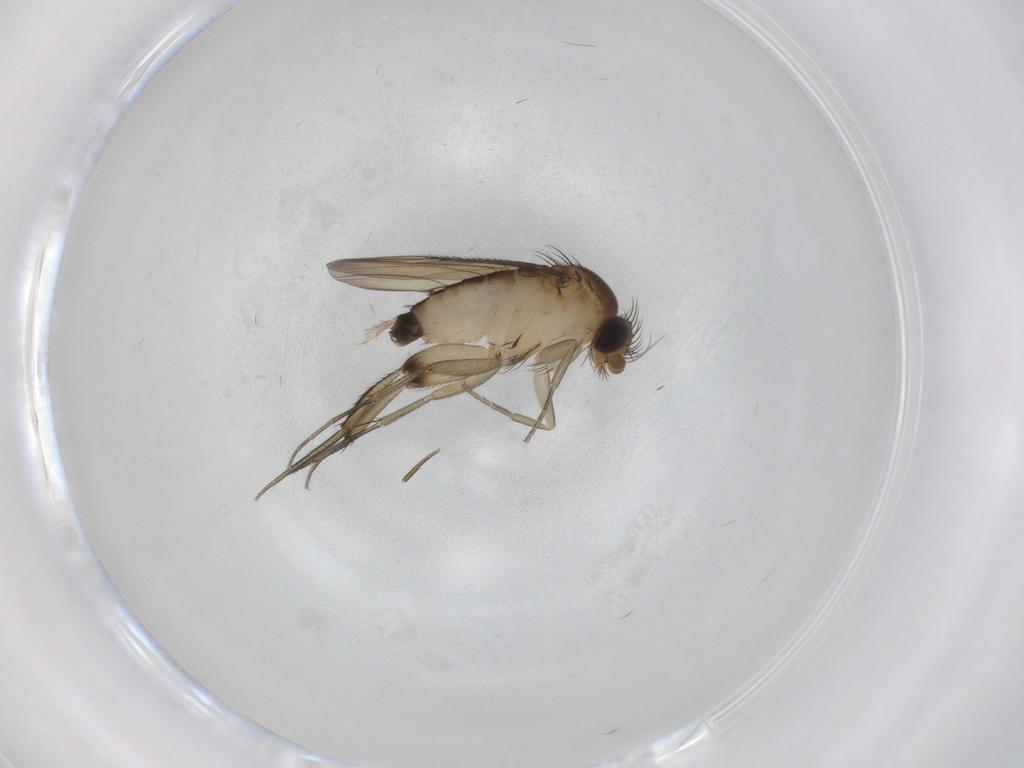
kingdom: Animalia
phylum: Arthropoda
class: Insecta
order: Diptera
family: Phoridae
